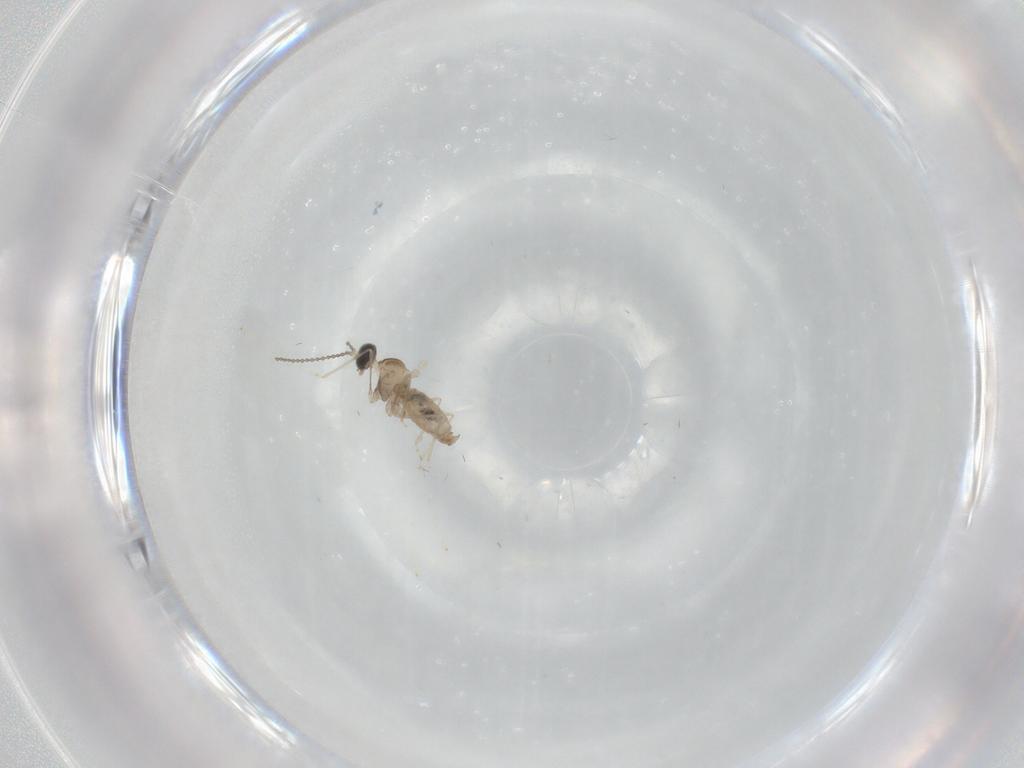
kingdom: Animalia
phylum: Arthropoda
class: Insecta
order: Diptera
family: Cecidomyiidae
